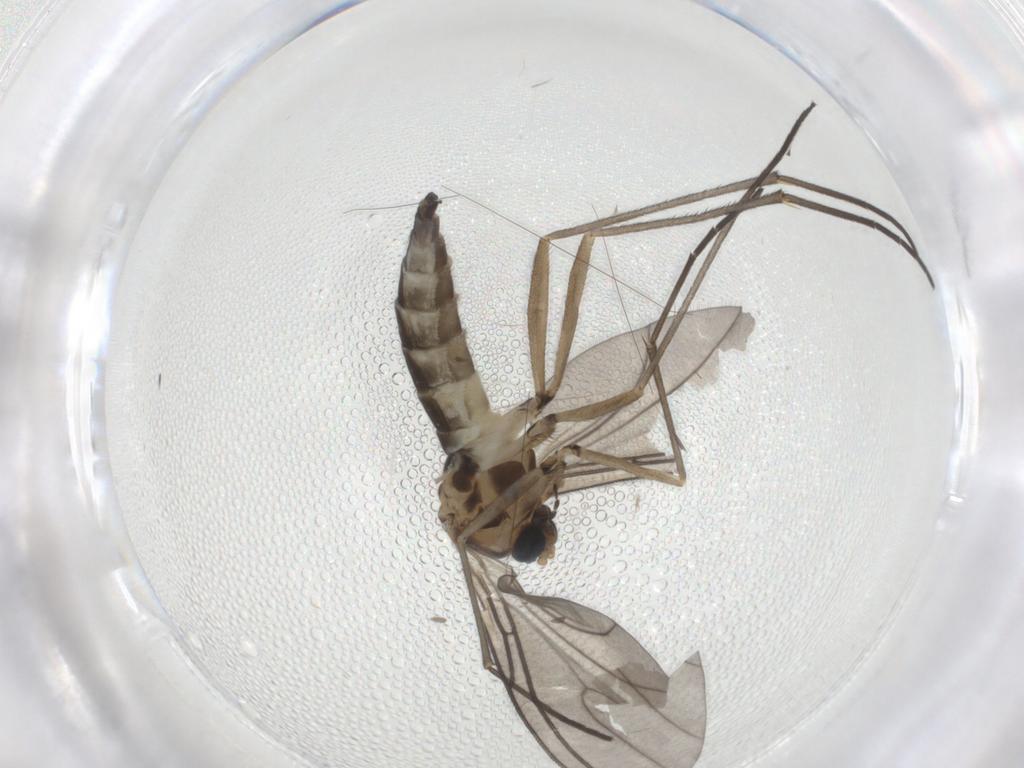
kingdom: Animalia
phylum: Arthropoda
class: Insecta
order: Diptera
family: Sciaridae
